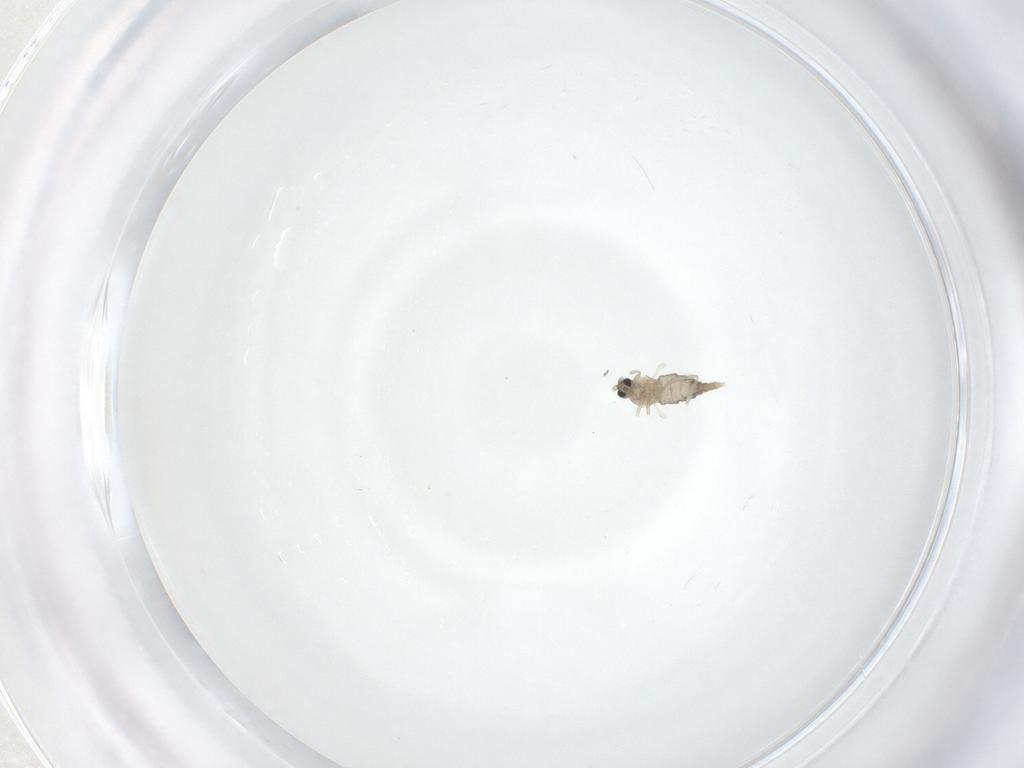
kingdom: Animalia
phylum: Arthropoda
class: Insecta
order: Diptera
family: Cecidomyiidae
